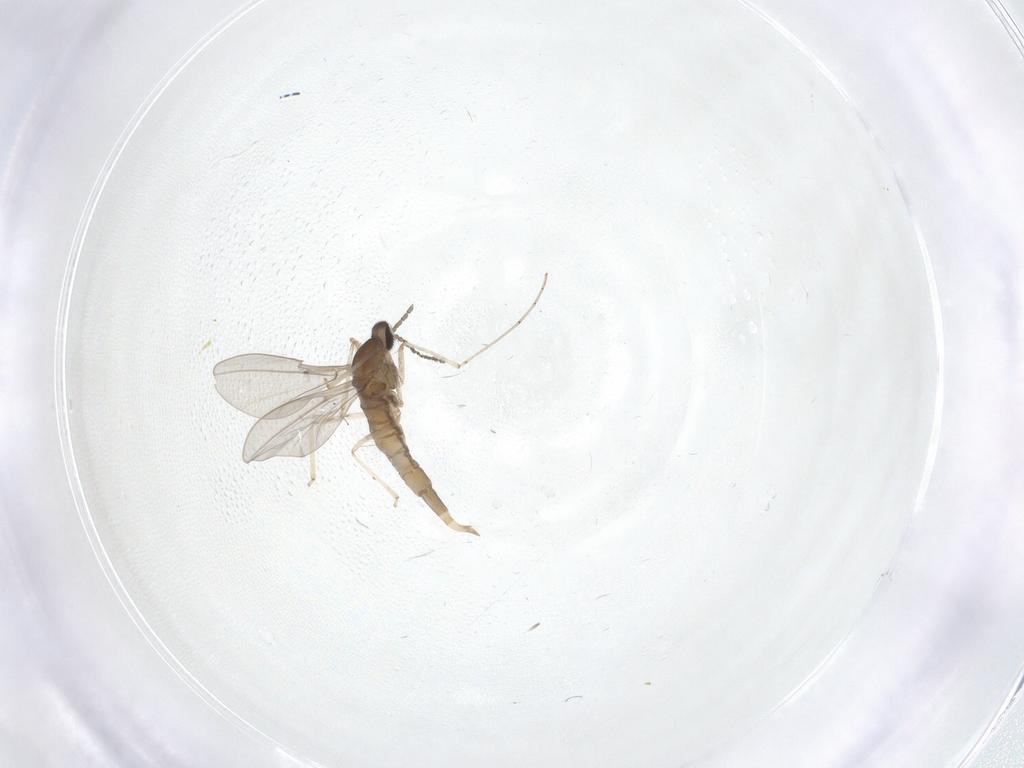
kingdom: Animalia
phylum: Arthropoda
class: Insecta
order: Diptera
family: Cecidomyiidae
